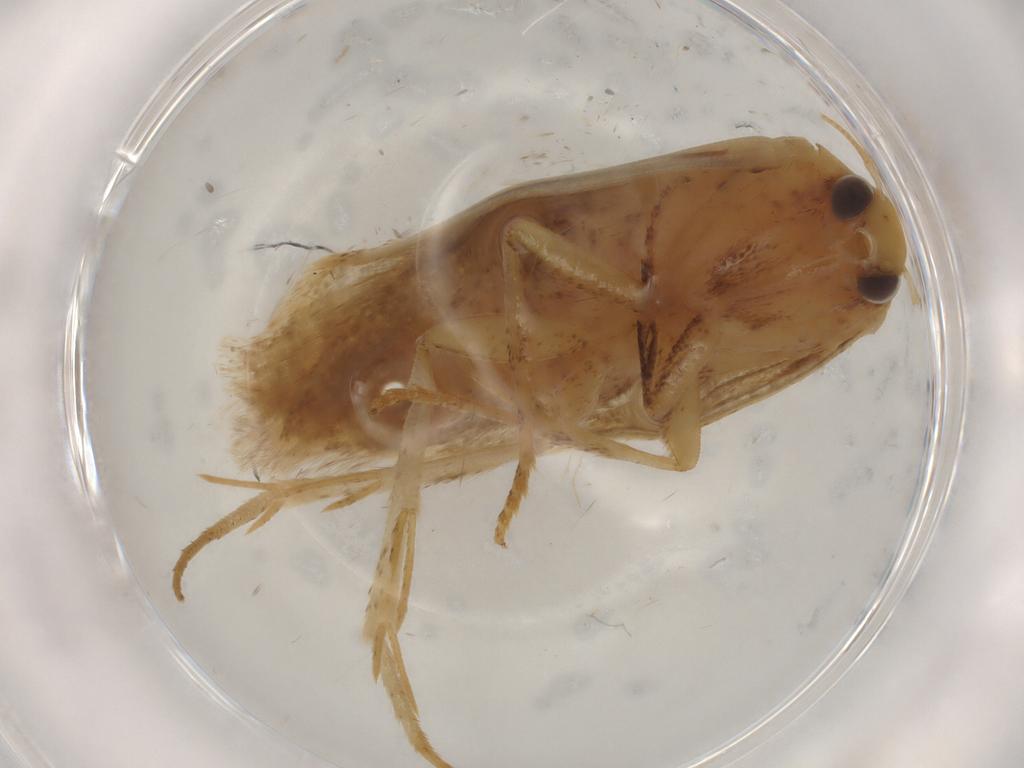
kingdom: Animalia
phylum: Arthropoda
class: Insecta
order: Lepidoptera
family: Gelechiidae
